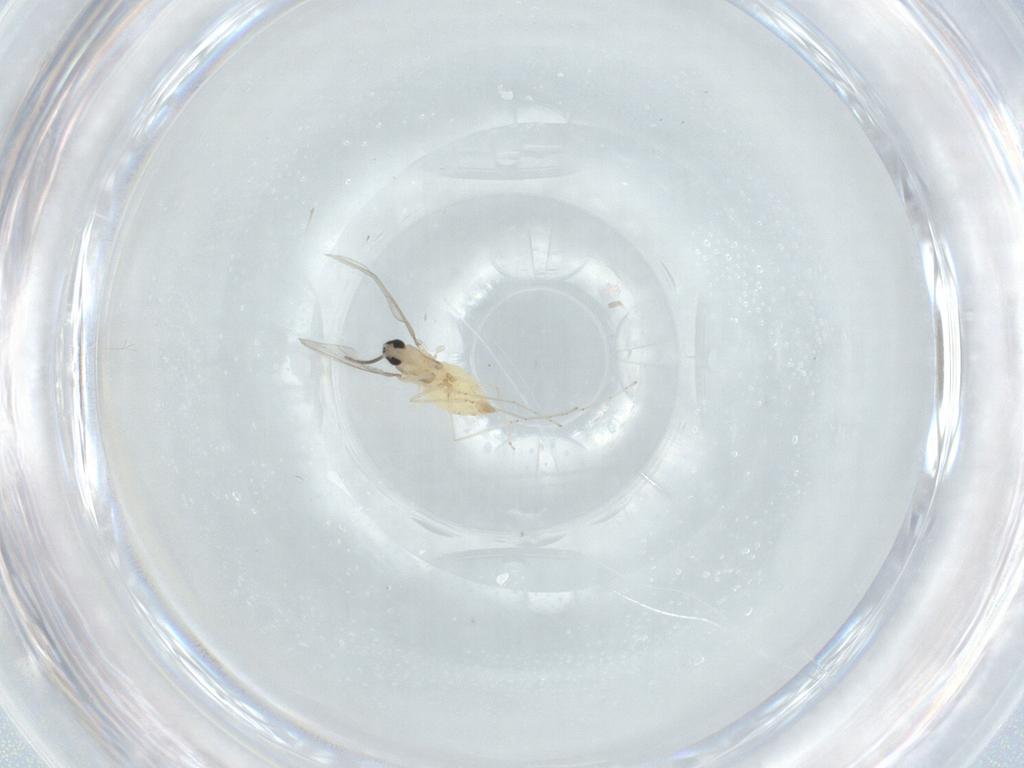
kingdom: Animalia
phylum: Arthropoda
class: Insecta
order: Diptera
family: Cecidomyiidae
